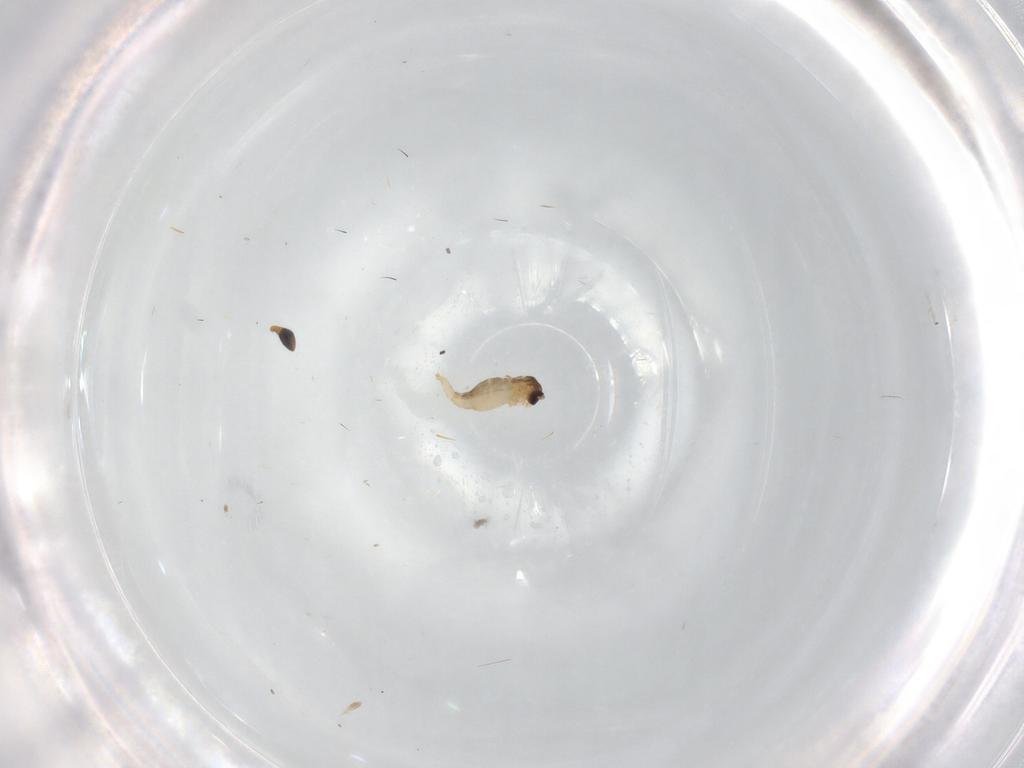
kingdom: Animalia
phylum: Arthropoda
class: Insecta
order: Diptera
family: Cecidomyiidae
